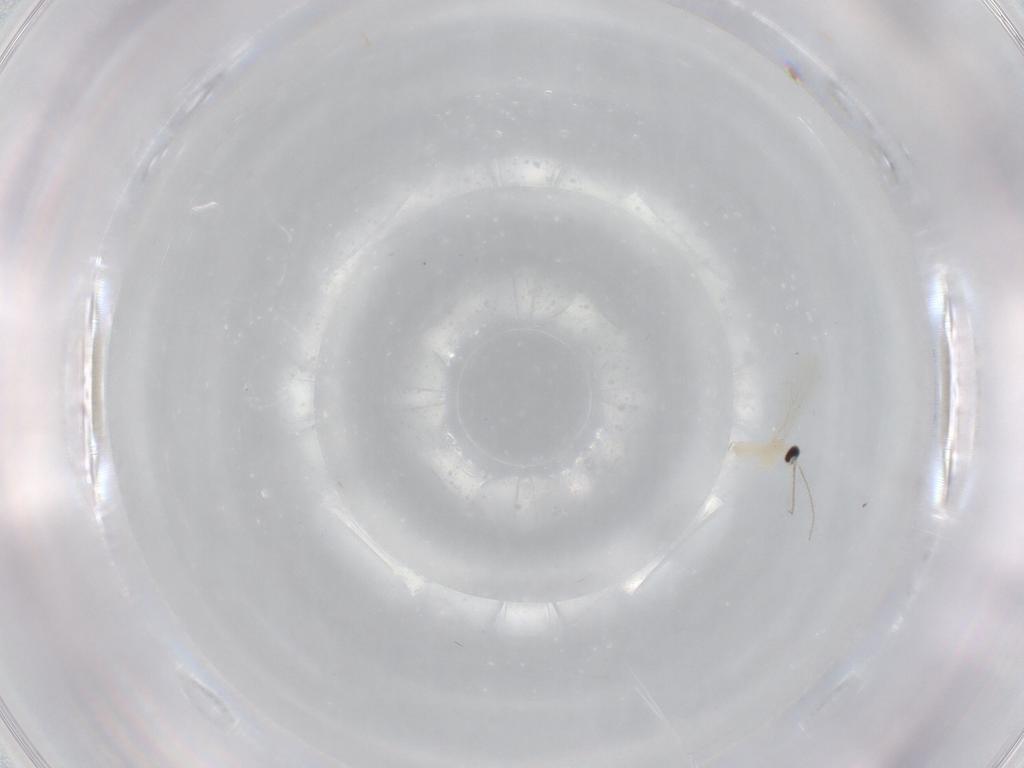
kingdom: Animalia
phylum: Arthropoda
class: Insecta
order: Diptera
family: Cecidomyiidae
